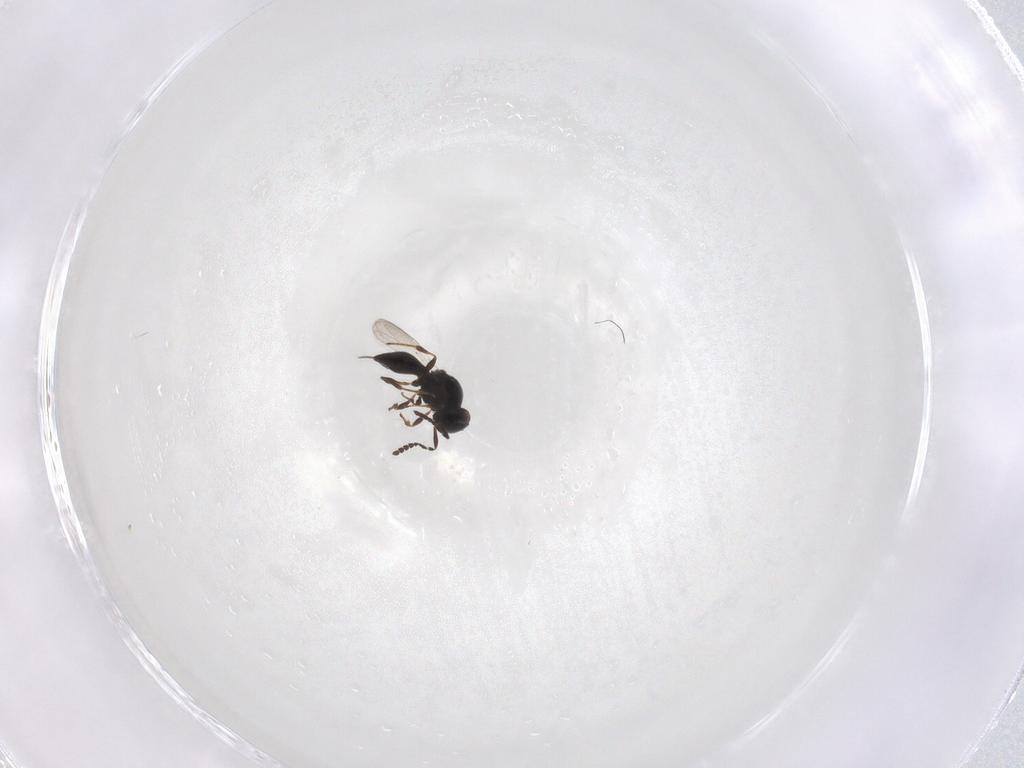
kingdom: Animalia
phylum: Arthropoda
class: Insecta
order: Hymenoptera
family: Platygastridae
